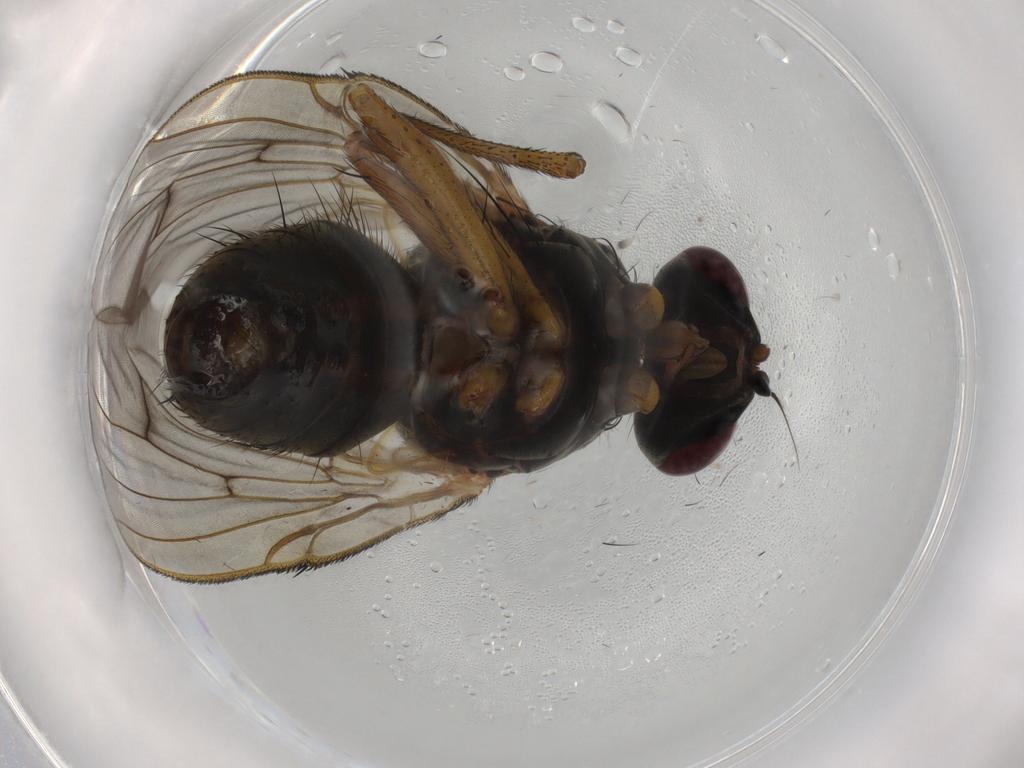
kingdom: Animalia
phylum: Arthropoda
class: Insecta
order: Diptera
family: Muscidae
